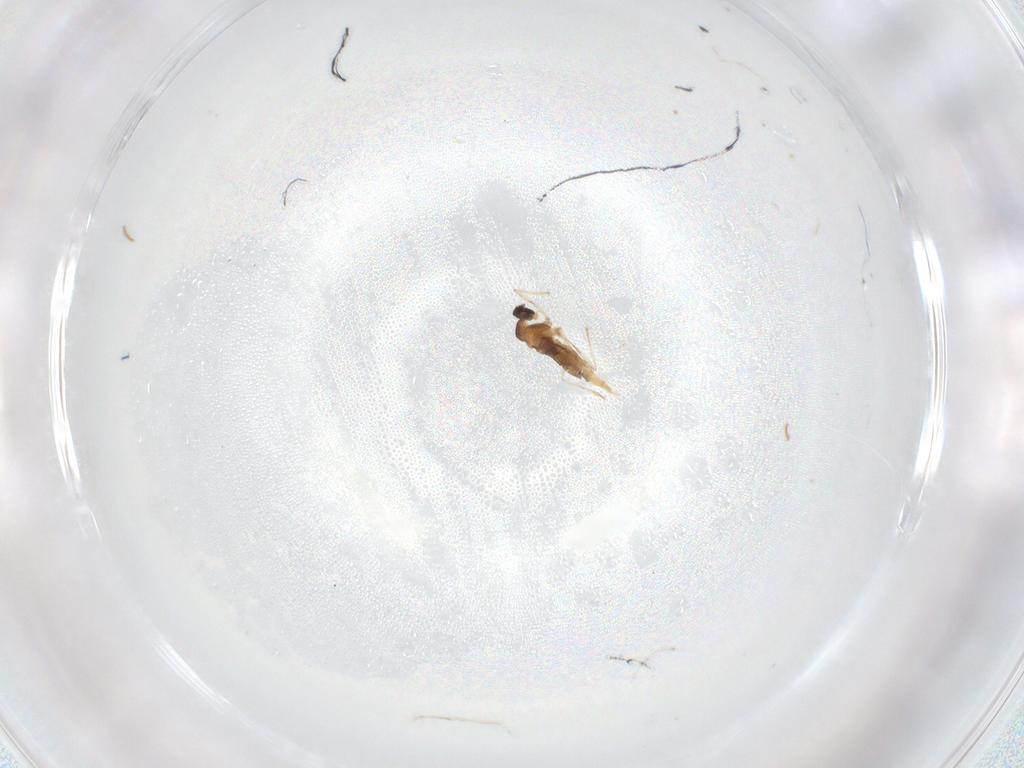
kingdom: Animalia
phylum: Arthropoda
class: Insecta
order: Diptera
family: Cecidomyiidae
